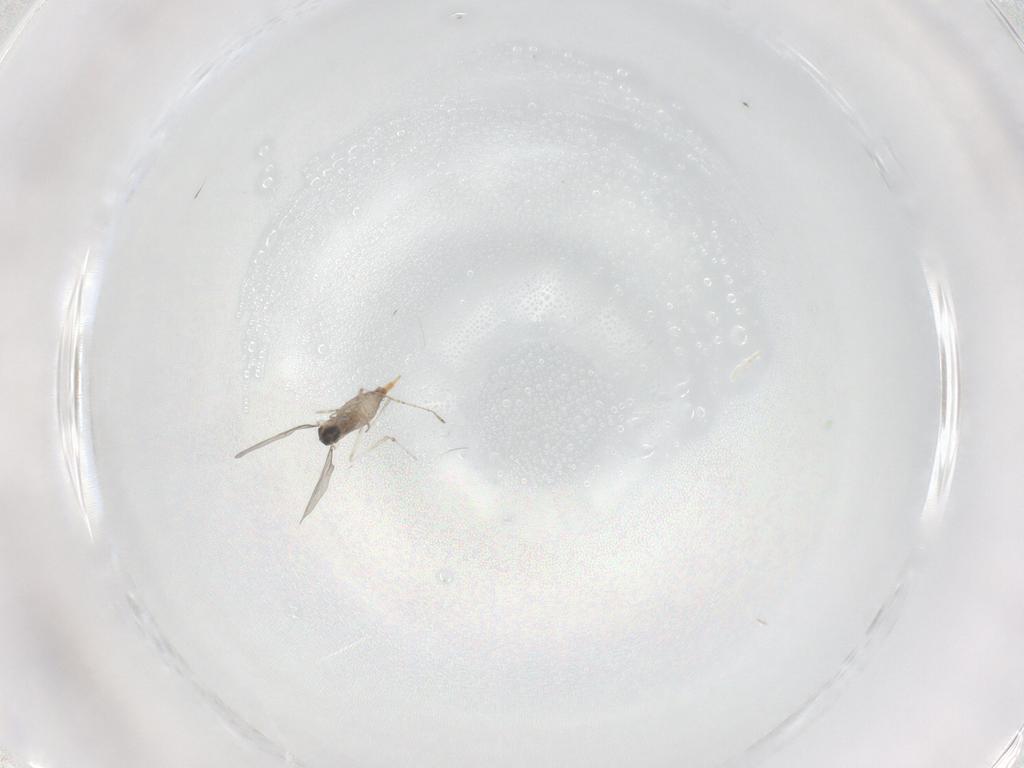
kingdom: Animalia
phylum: Arthropoda
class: Insecta
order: Diptera
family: Cecidomyiidae
